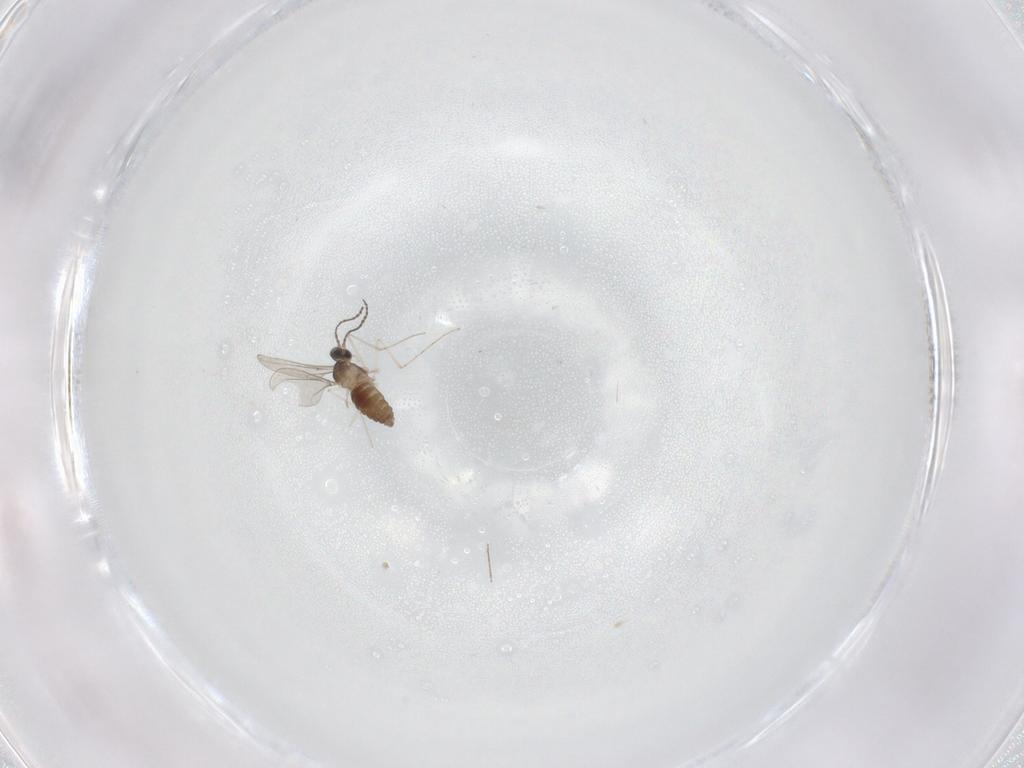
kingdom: Animalia
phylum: Arthropoda
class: Insecta
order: Diptera
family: Cecidomyiidae
